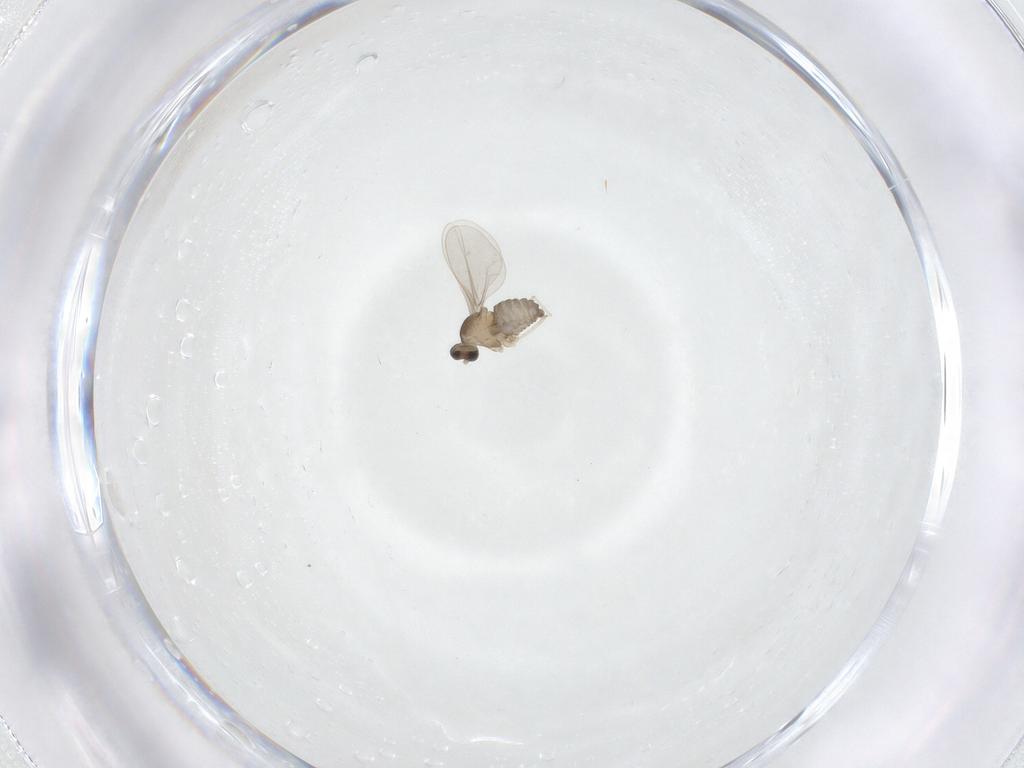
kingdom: Animalia
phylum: Arthropoda
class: Insecta
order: Diptera
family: Cecidomyiidae
